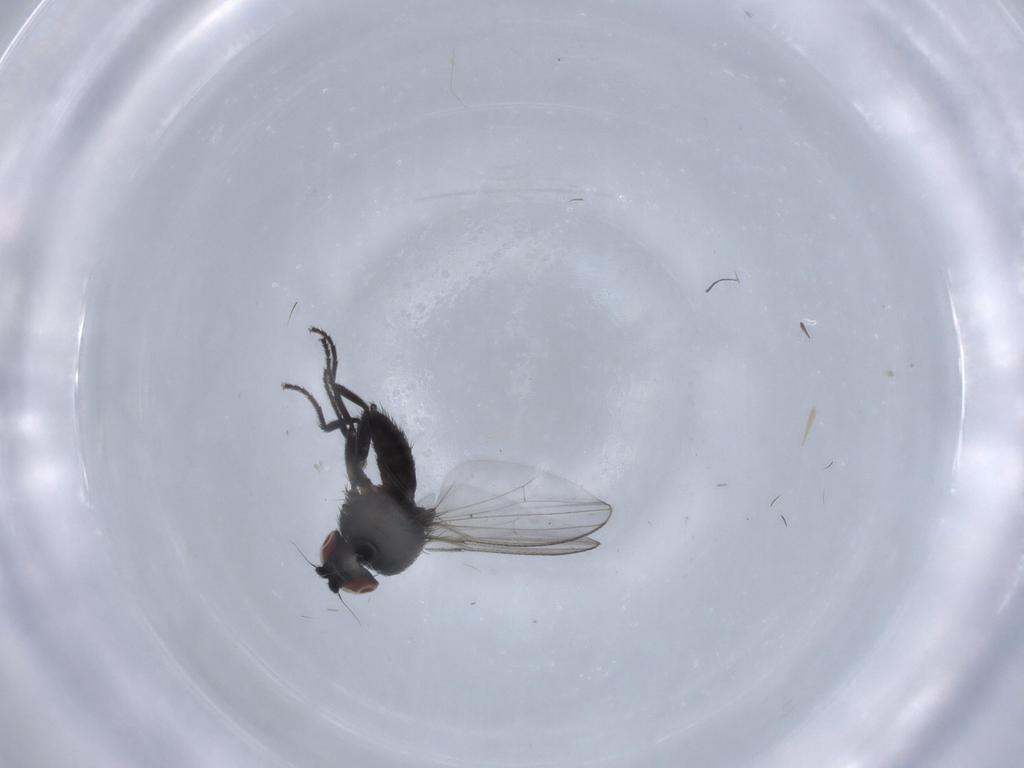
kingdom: Animalia
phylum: Arthropoda
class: Insecta
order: Diptera
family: Milichiidae
